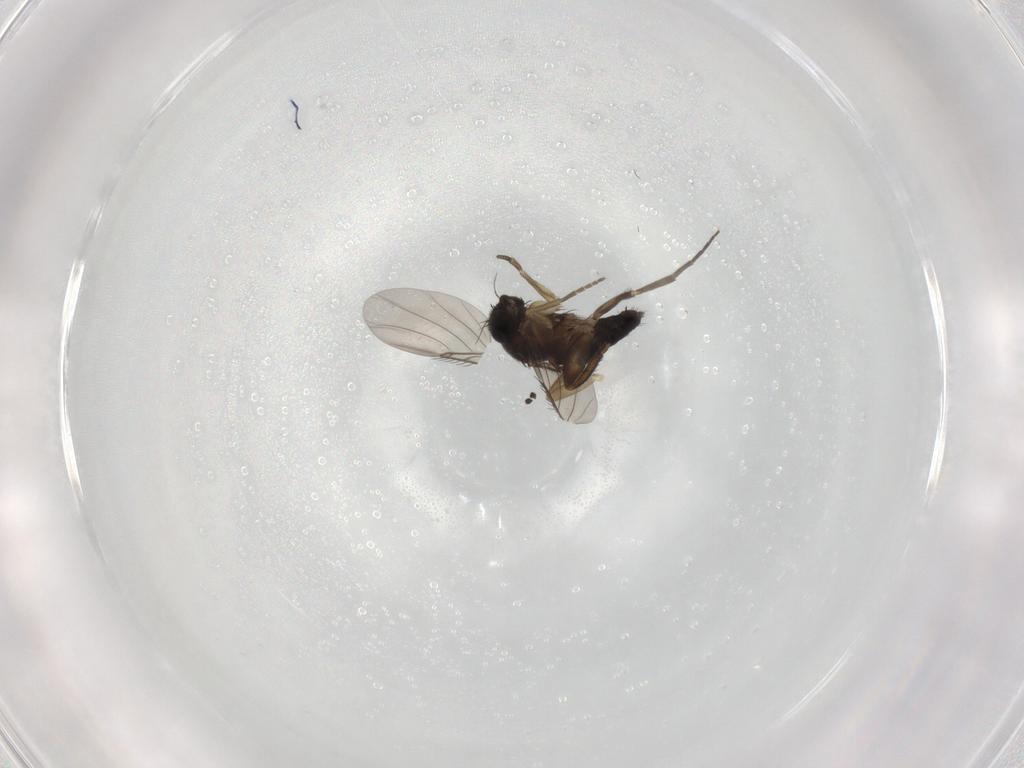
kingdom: Animalia
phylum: Arthropoda
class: Insecta
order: Diptera
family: Phoridae
